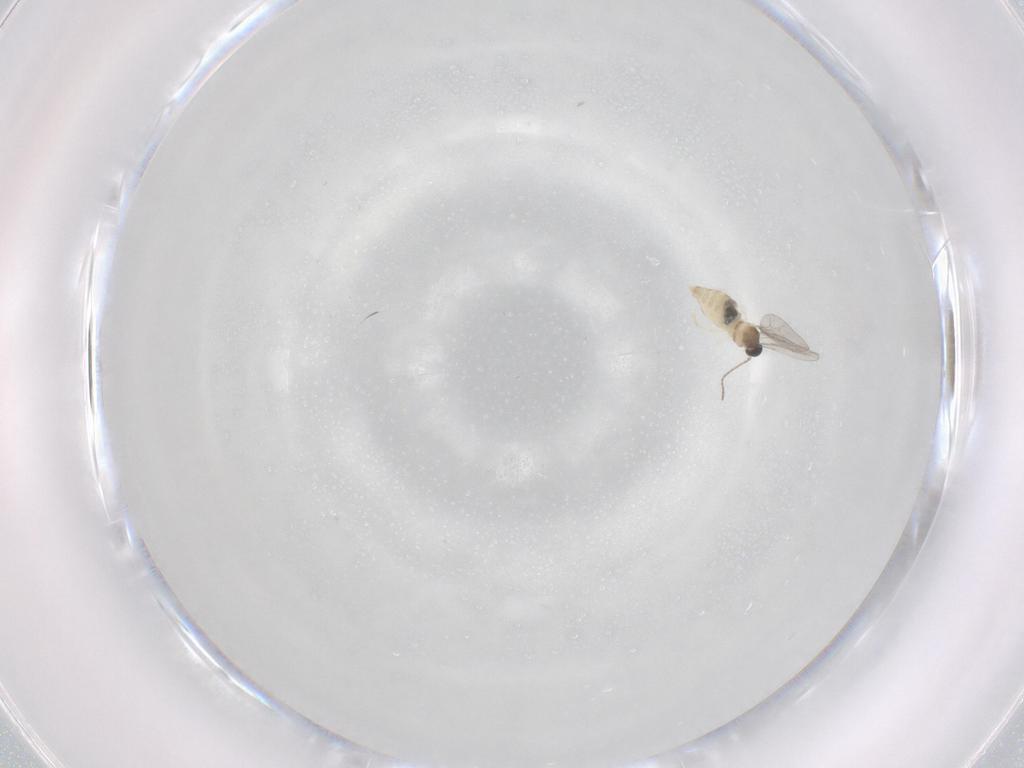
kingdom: Animalia
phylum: Arthropoda
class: Insecta
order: Diptera
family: Cecidomyiidae
